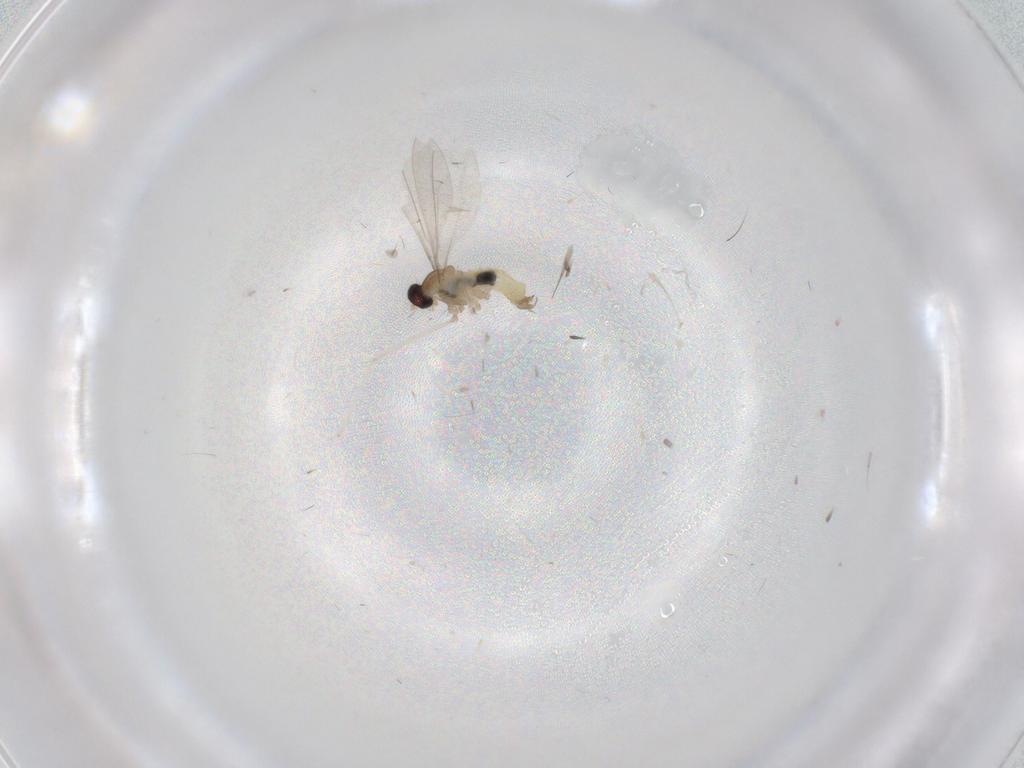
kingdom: Animalia
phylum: Arthropoda
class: Insecta
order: Diptera
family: Cecidomyiidae
